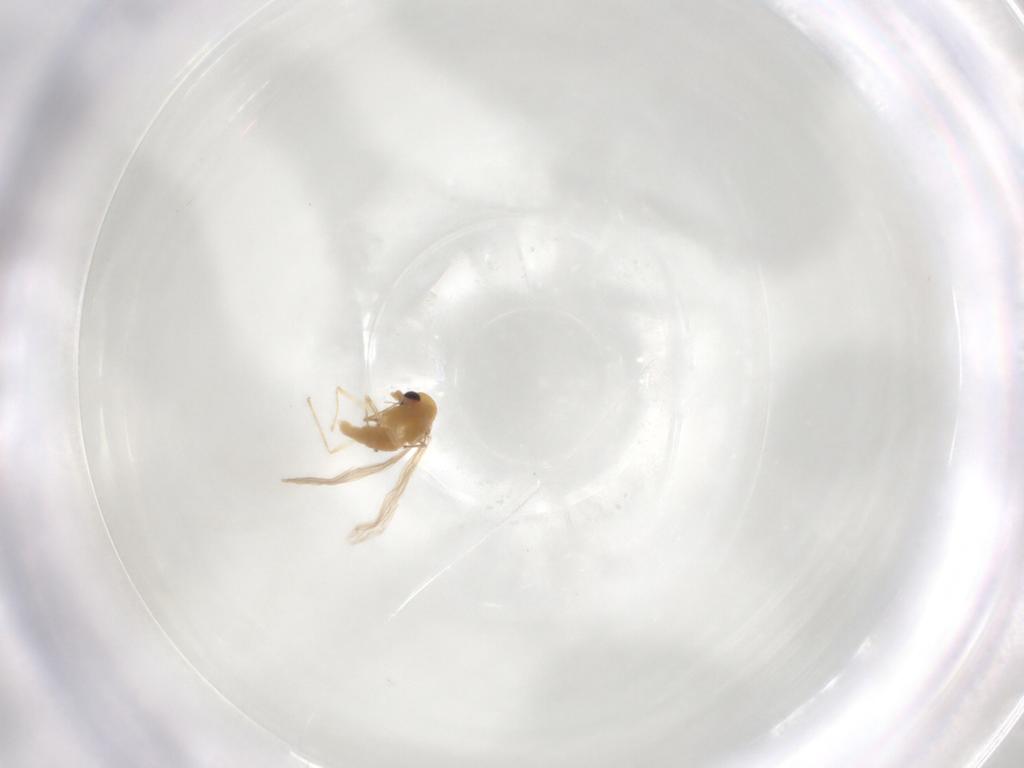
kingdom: Animalia
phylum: Arthropoda
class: Insecta
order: Diptera
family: Chironomidae
